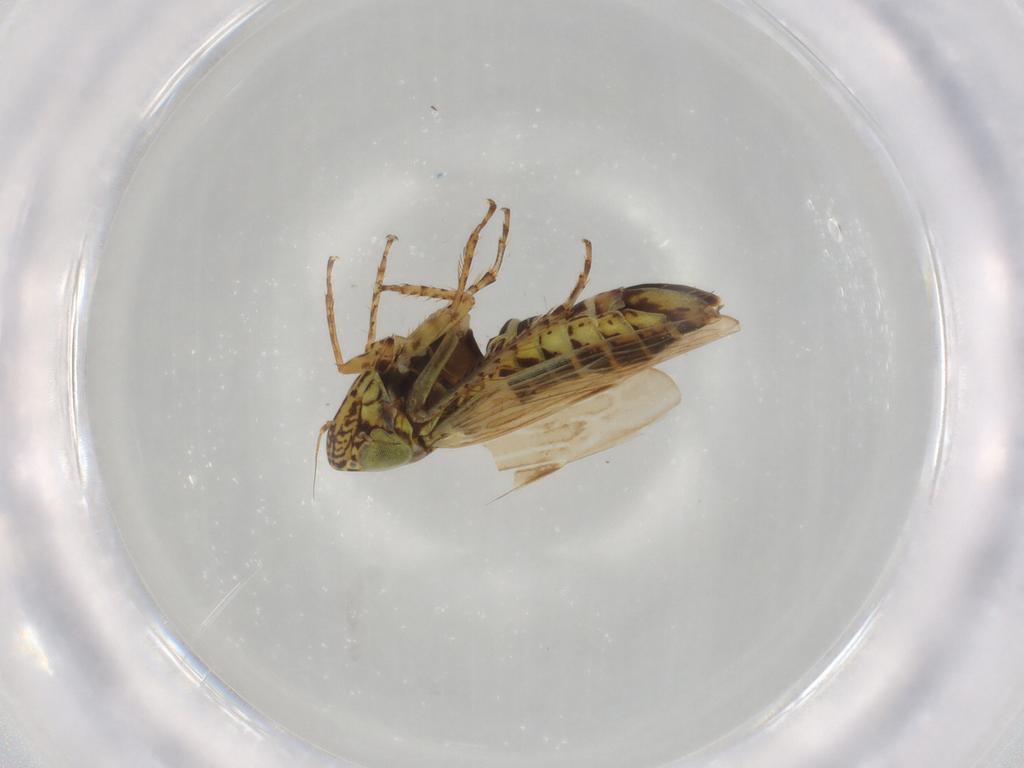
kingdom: Animalia
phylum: Arthropoda
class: Insecta
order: Hemiptera
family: Cicadellidae
